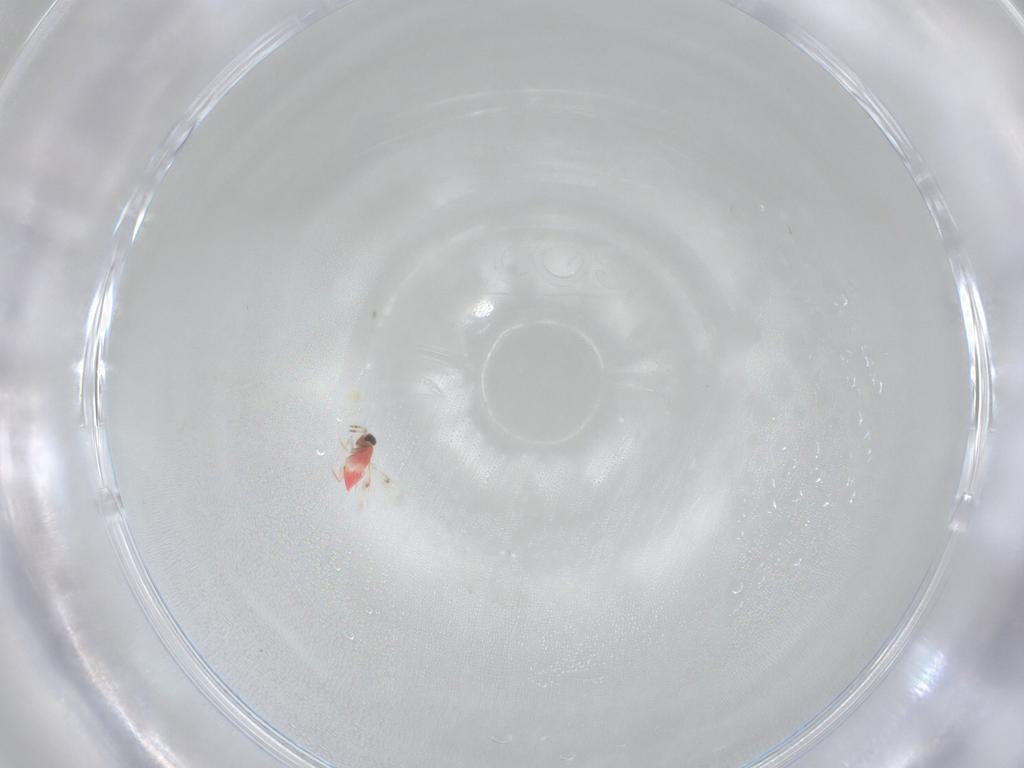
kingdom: Animalia
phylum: Arthropoda
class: Insecta
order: Hymenoptera
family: Trichogrammatidae
